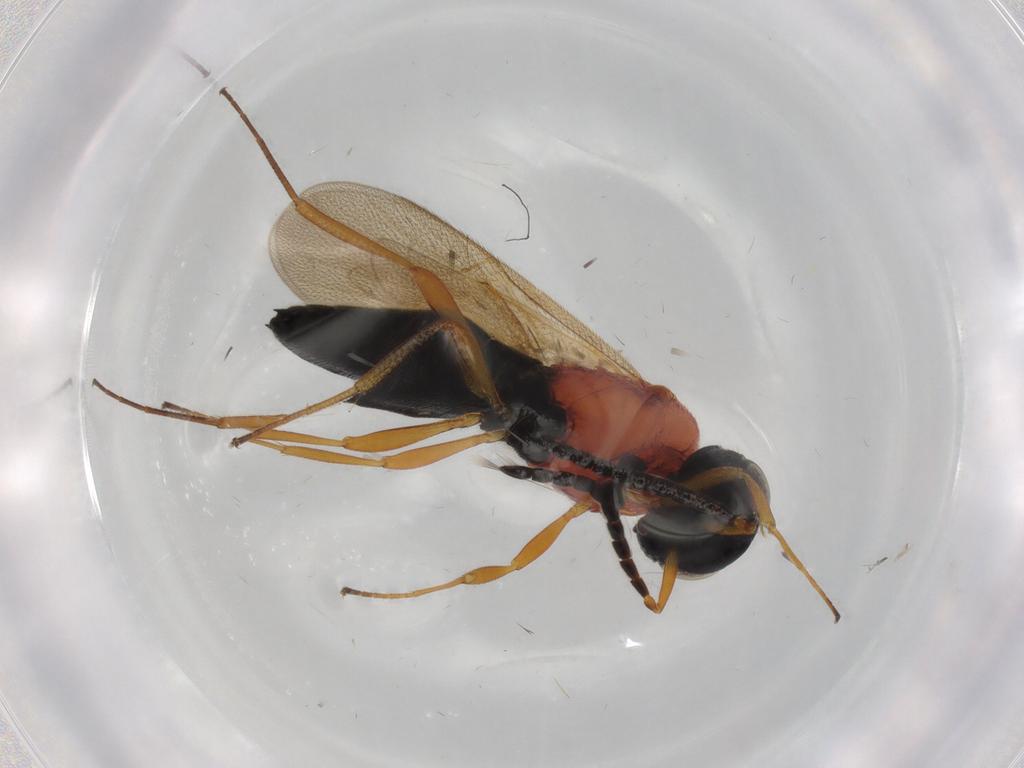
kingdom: Animalia
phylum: Arthropoda
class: Insecta
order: Hymenoptera
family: Scelionidae
